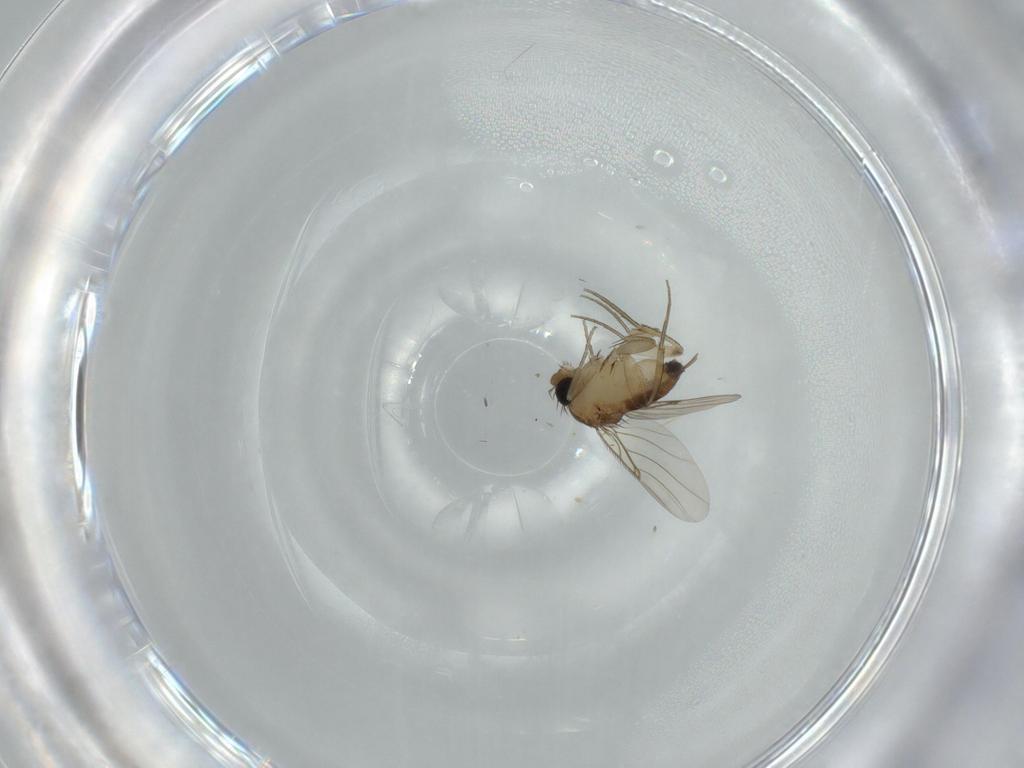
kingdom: Animalia
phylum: Arthropoda
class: Insecta
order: Diptera
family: Phoridae
